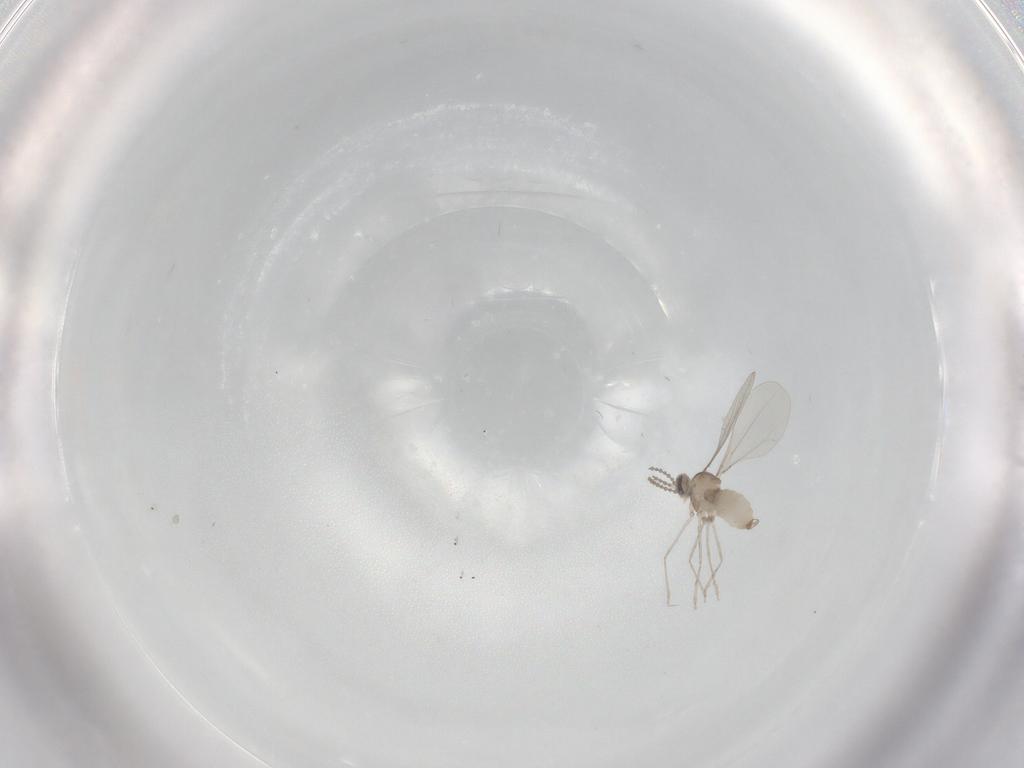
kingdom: Animalia
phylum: Arthropoda
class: Insecta
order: Diptera
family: Cecidomyiidae
